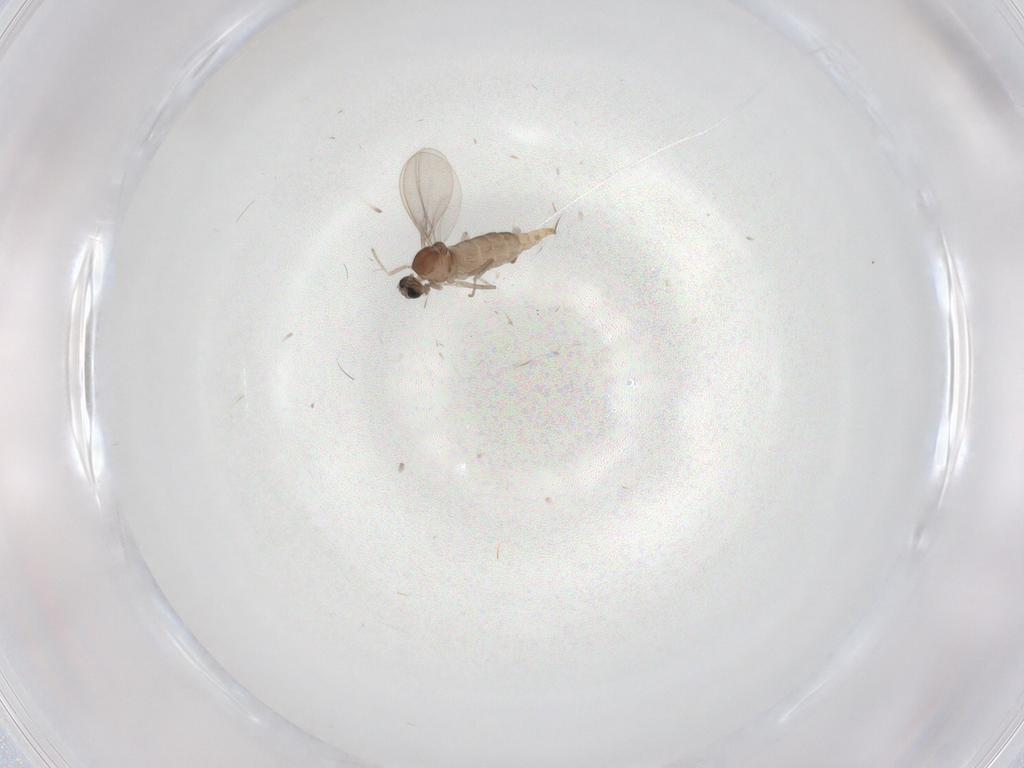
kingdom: Animalia
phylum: Arthropoda
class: Insecta
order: Diptera
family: Cecidomyiidae
